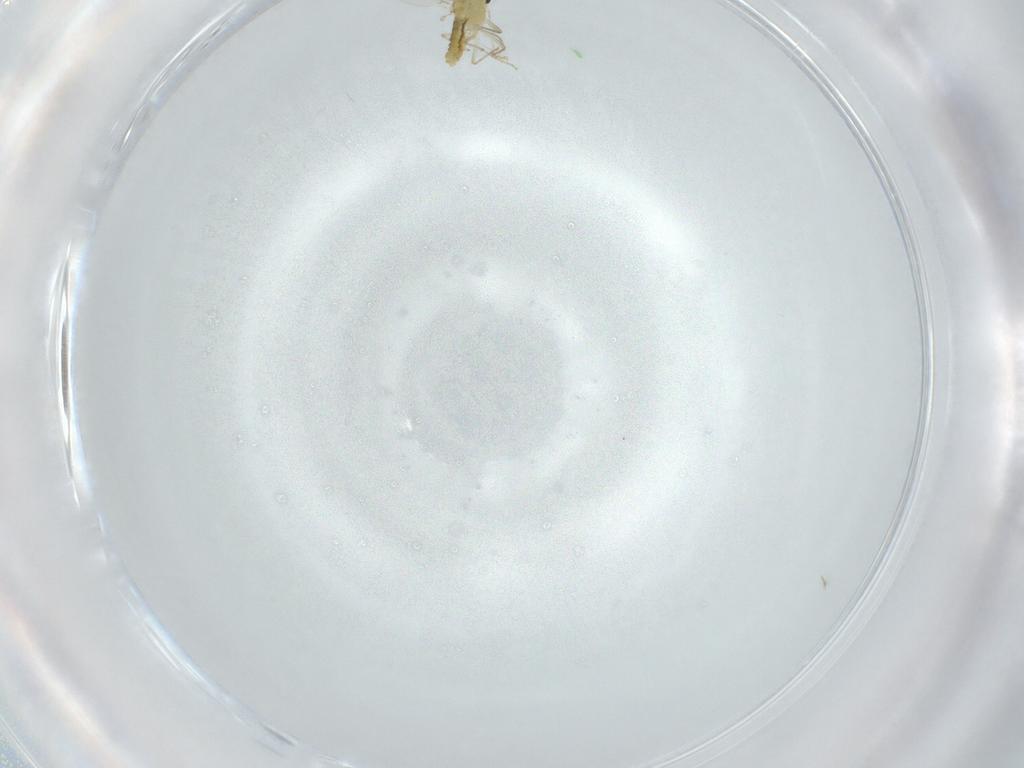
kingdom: Animalia
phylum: Arthropoda
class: Insecta
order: Diptera
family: Chironomidae
